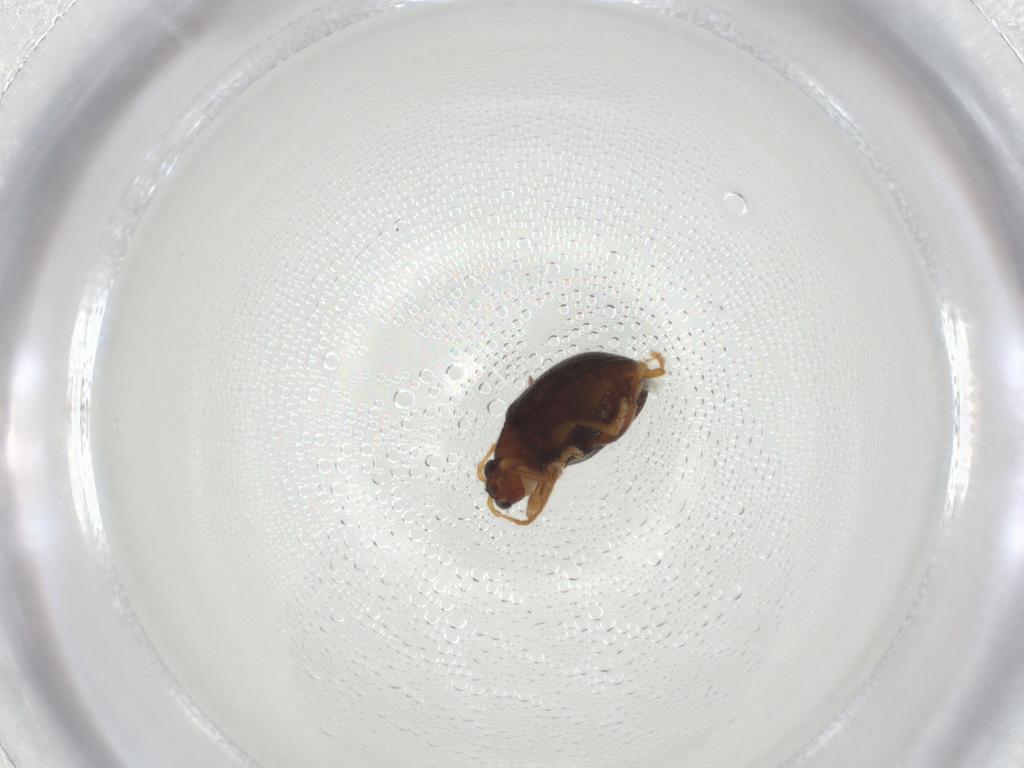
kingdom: Animalia
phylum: Arthropoda
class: Insecta
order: Coleoptera
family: Chrysomelidae
